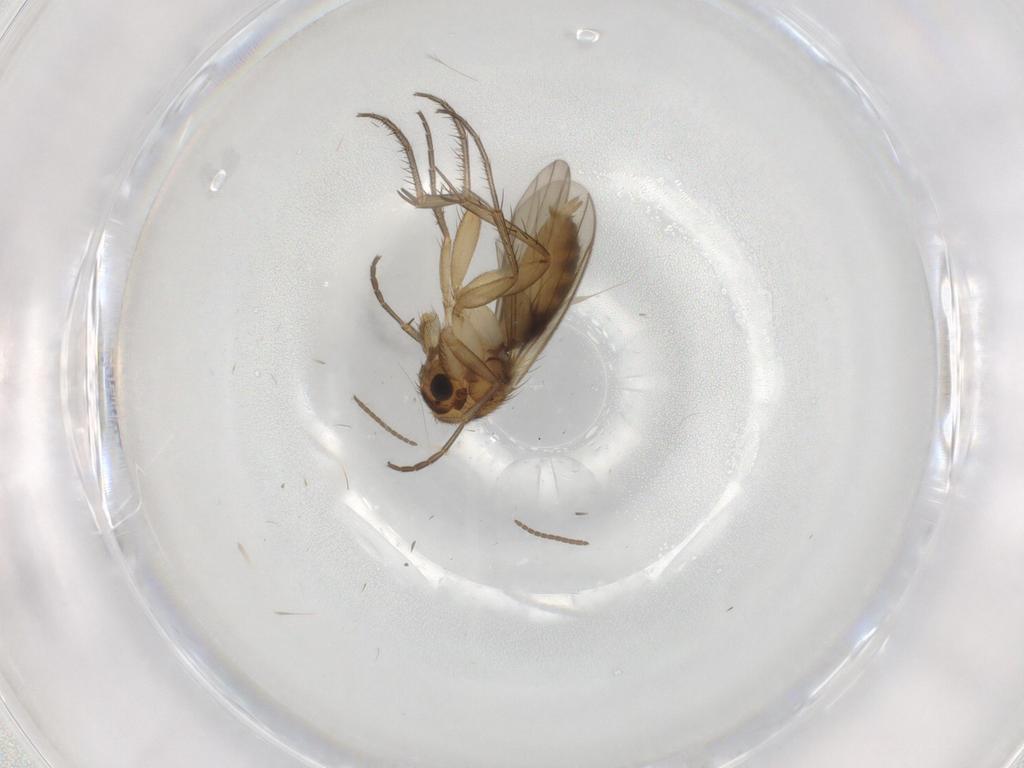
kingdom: Animalia
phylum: Arthropoda
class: Insecta
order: Diptera
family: Mycetophilidae
